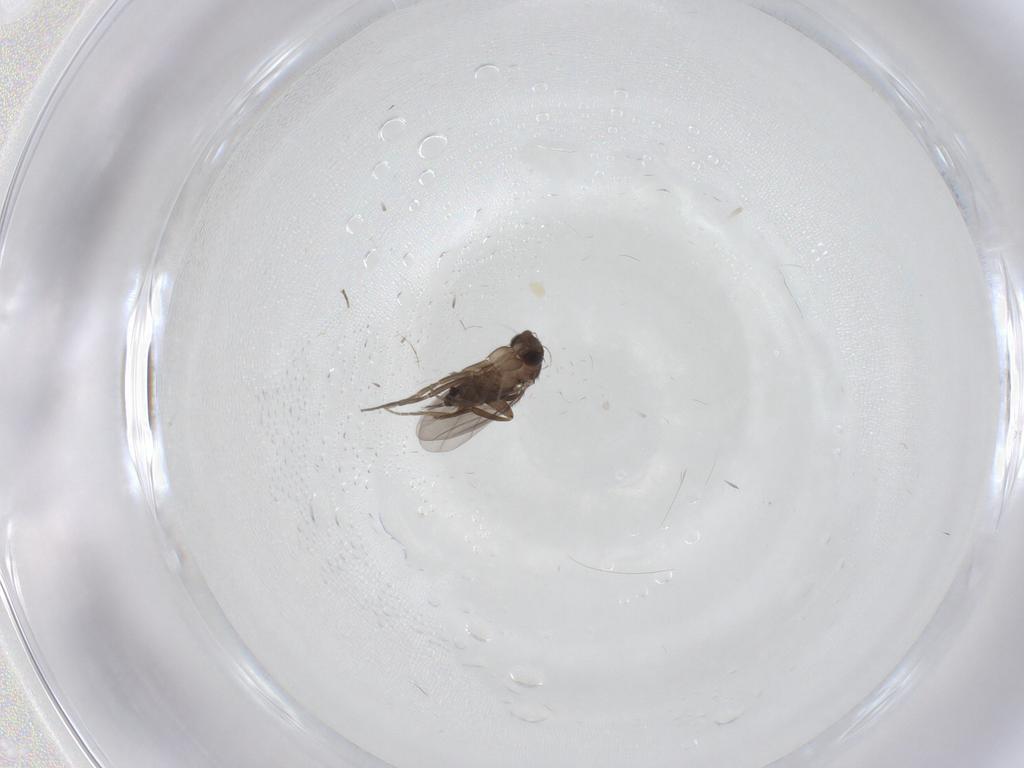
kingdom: Animalia
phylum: Arthropoda
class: Insecta
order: Diptera
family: Phoridae
